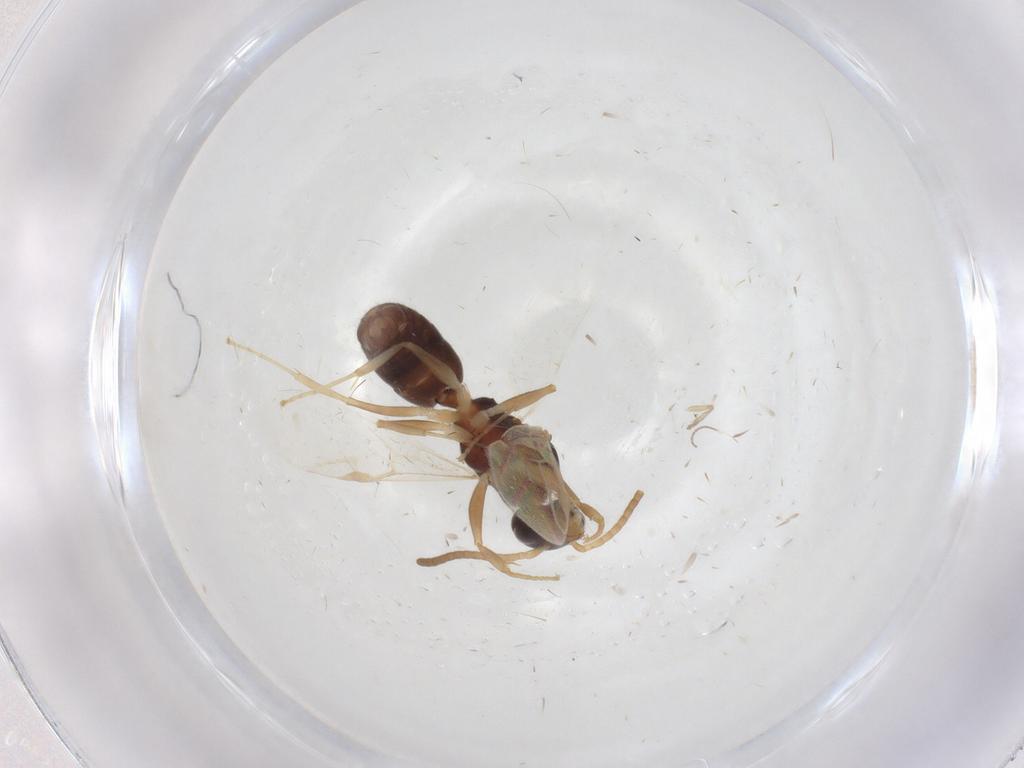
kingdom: Animalia
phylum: Arthropoda
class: Insecta
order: Hymenoptera
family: Formicidae
